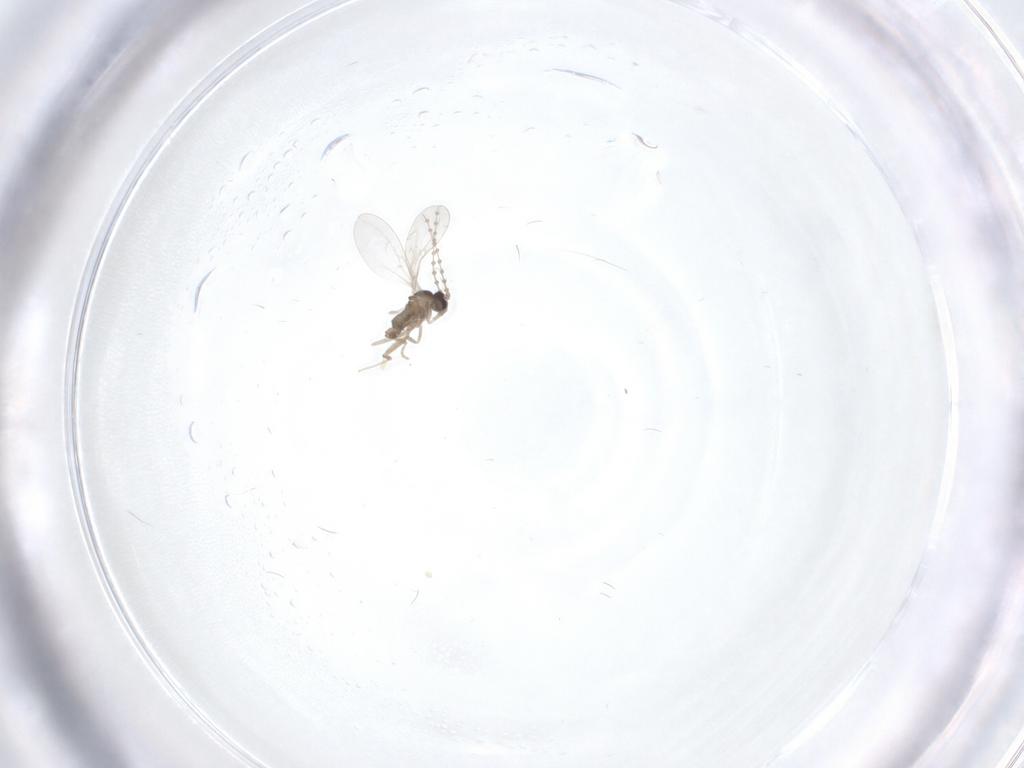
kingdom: Animalia
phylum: Arthropoda
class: Insecta
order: Diptera
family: Cecidomyiidae
